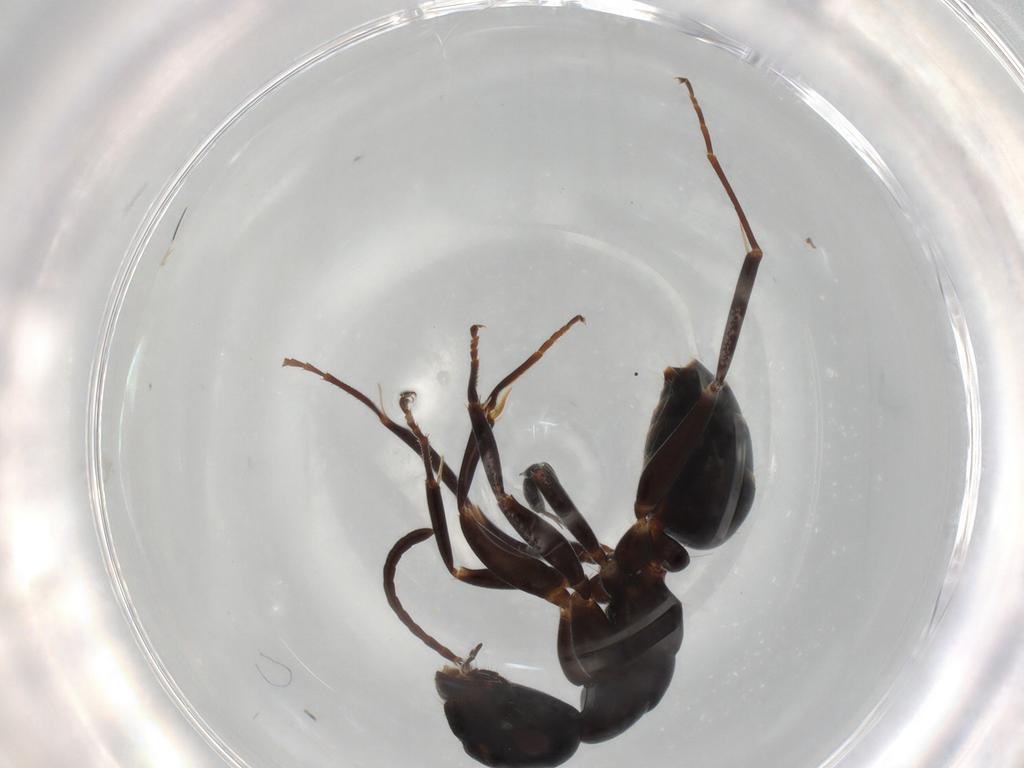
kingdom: Animalia
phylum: Arthropoda
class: Insecta
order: Hymenoptera
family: Formicidae
